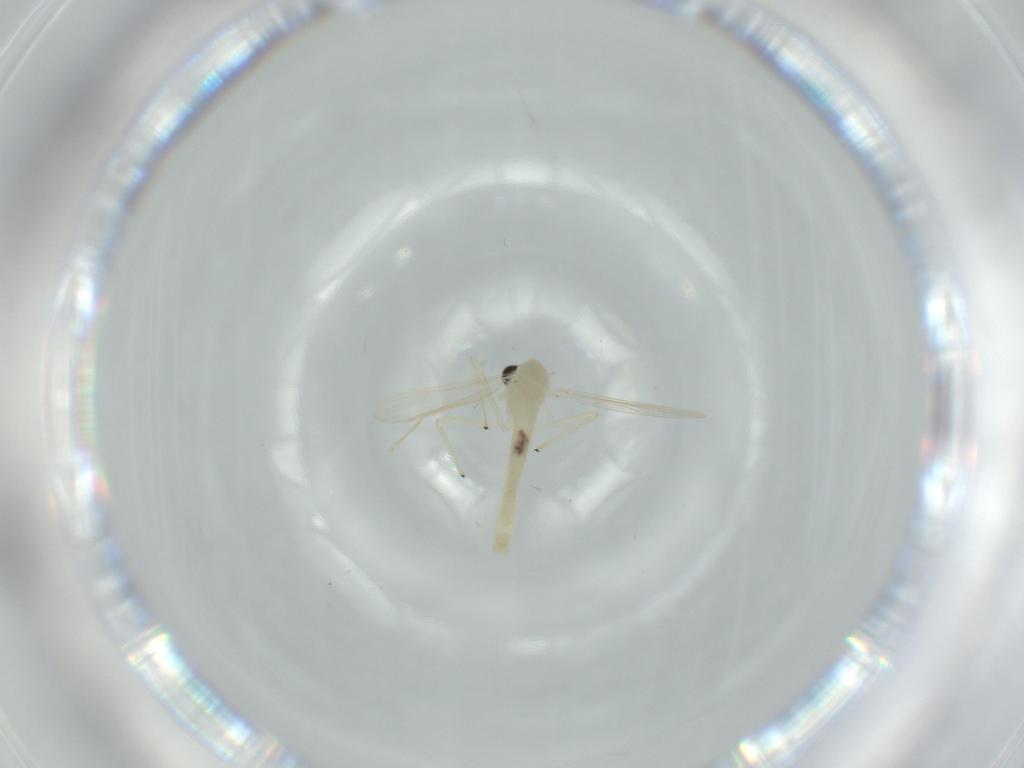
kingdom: Animalia
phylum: Arthropoda
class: Insecta
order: Diptera
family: Chironomidae
